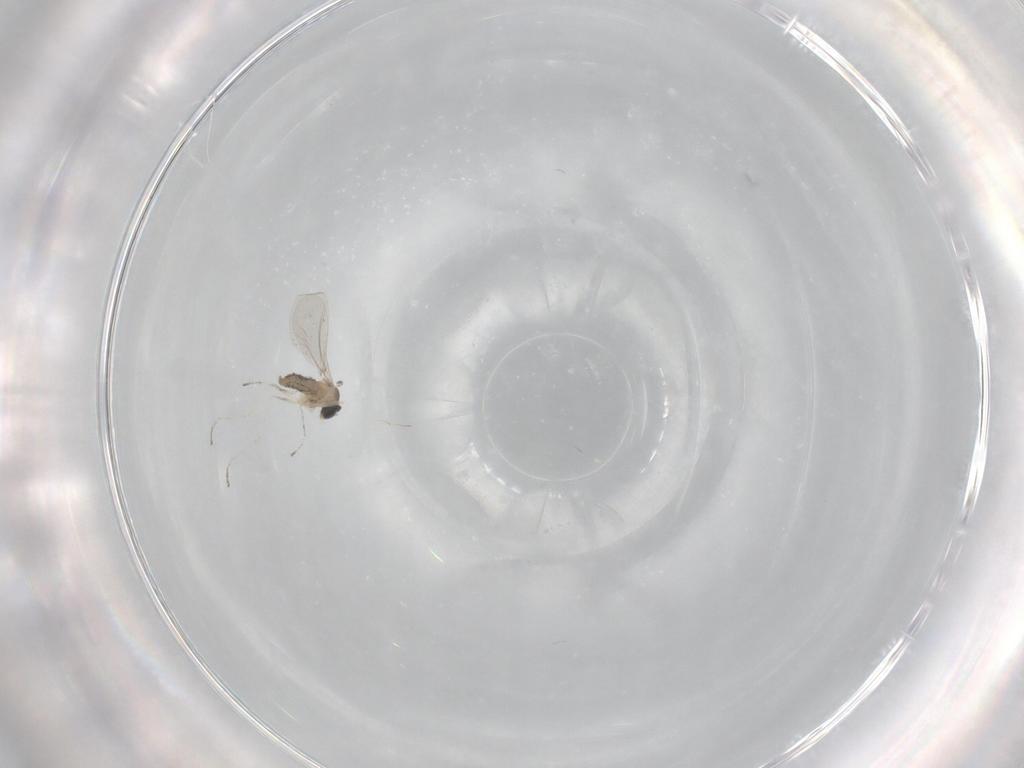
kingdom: Animalia
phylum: Arthropoda
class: Insecta
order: Diptera
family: Cecidomyiidae
